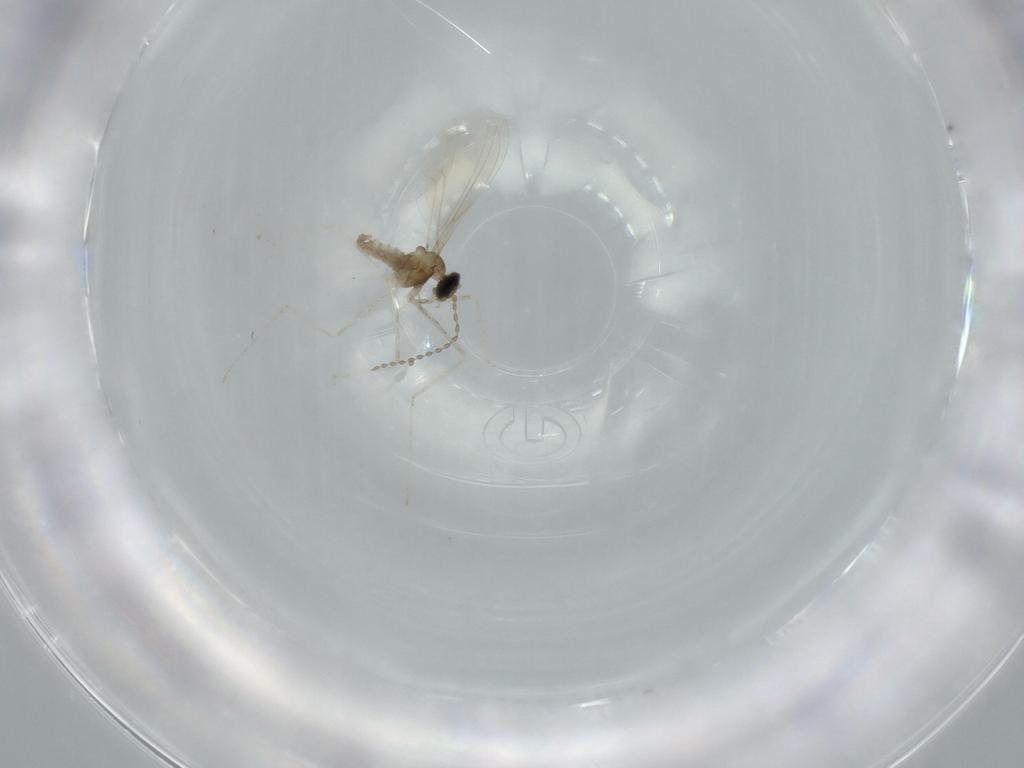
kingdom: Animalia
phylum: Arthropoda
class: Insecta
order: Diptera
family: Cecidomyiidae
